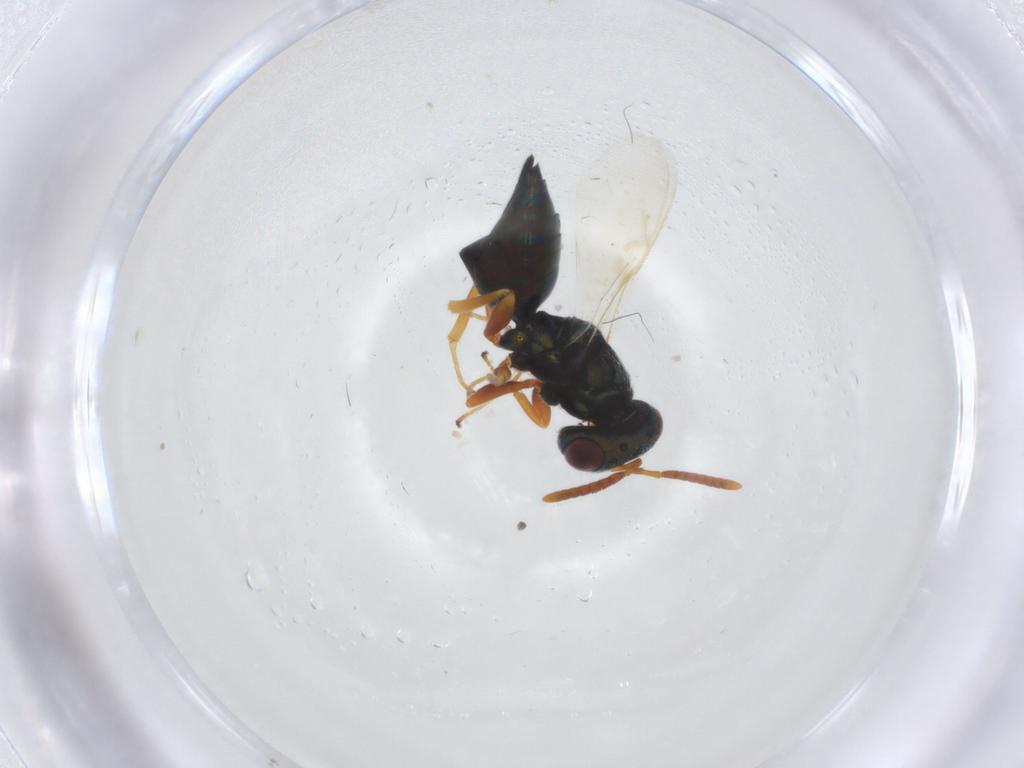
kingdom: Animalia
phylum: Arthropoda
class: Insecta
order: Hymenoptera
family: Pteromalidae
